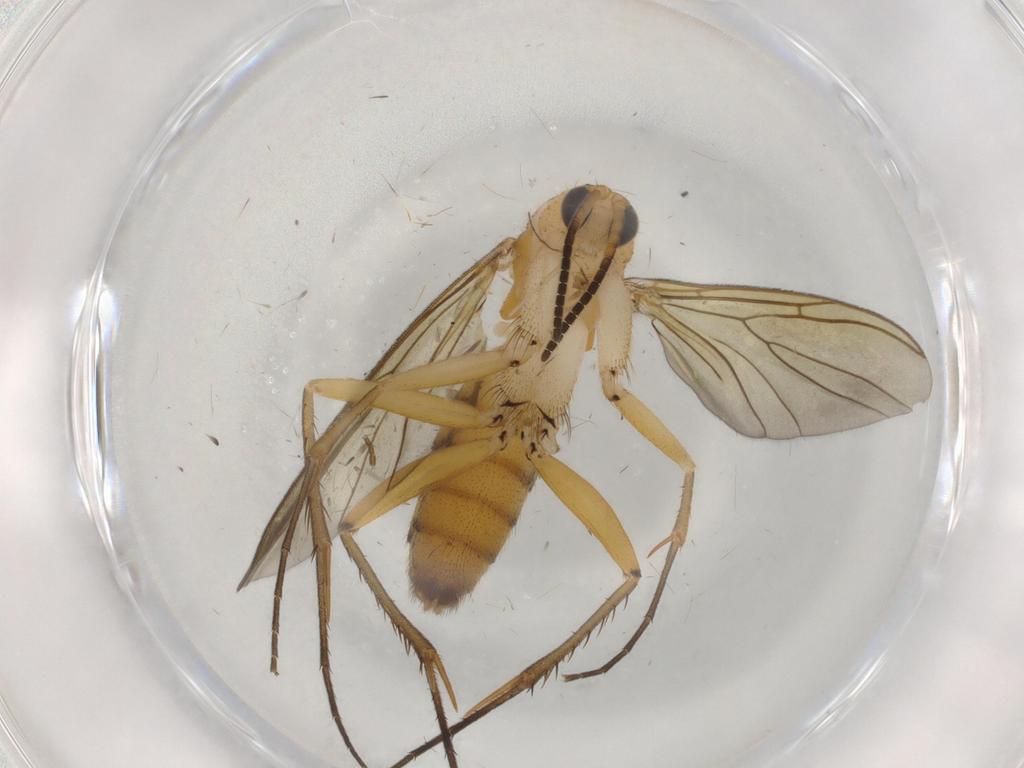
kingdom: Animalia
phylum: Arthropoda
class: Insecta
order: Diptera
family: Mycetophilidae
